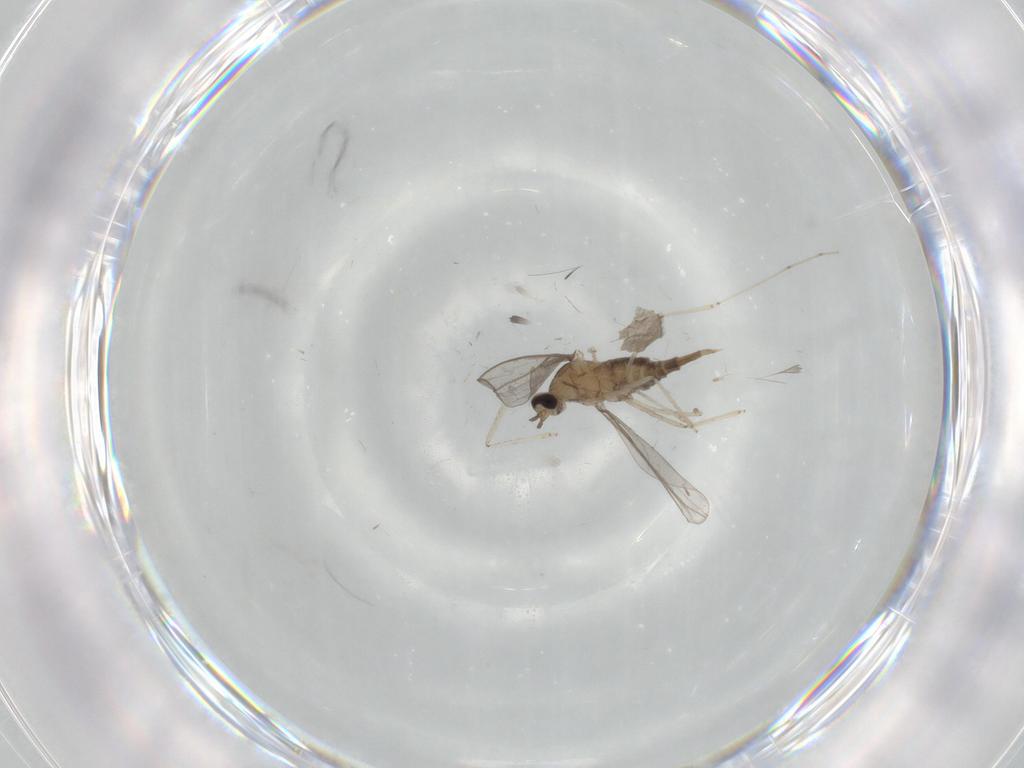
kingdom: Animalia
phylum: Arthropoda
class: Insecta
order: Diptera
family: Cecidomyiidae
